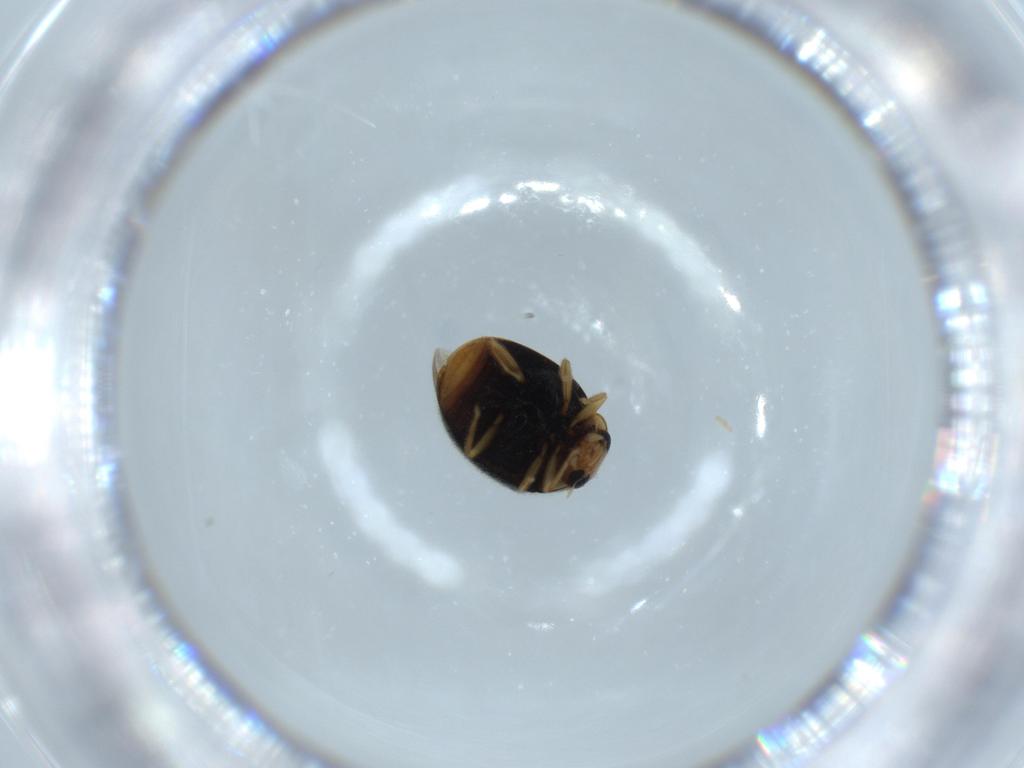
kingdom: Animalia
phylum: Arthropoda
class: Insecta
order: Coleoptera
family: Curculionidae
